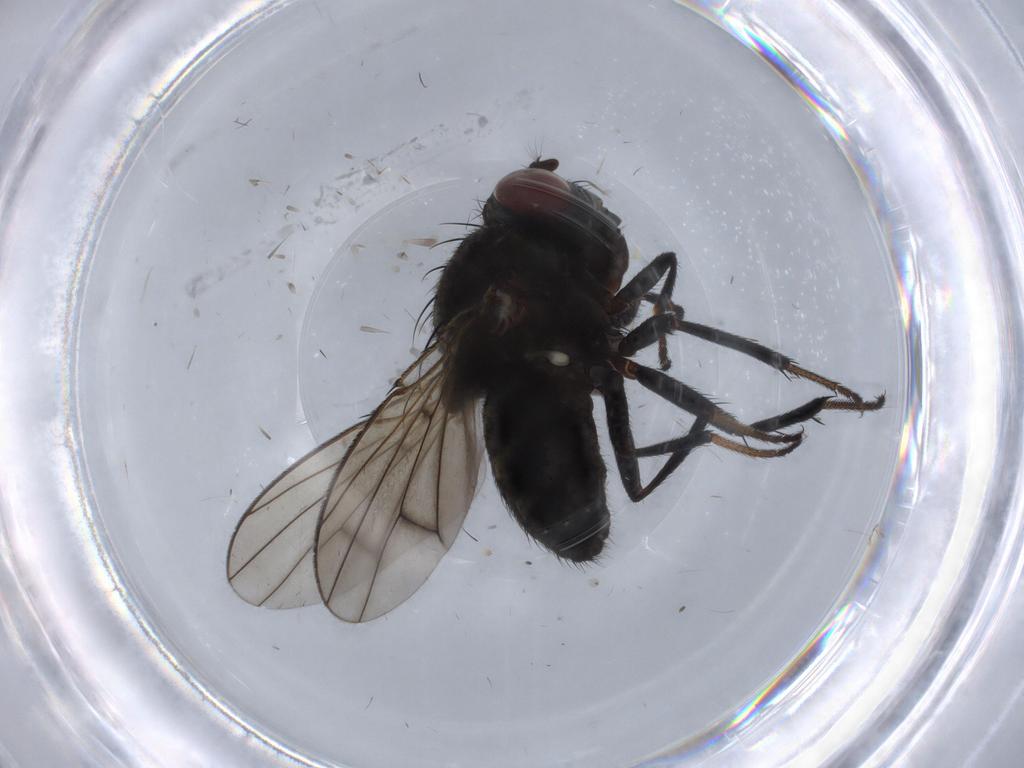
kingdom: Animalia
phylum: Arthropoda
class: Insecta
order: Diptera
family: Ephydridae
